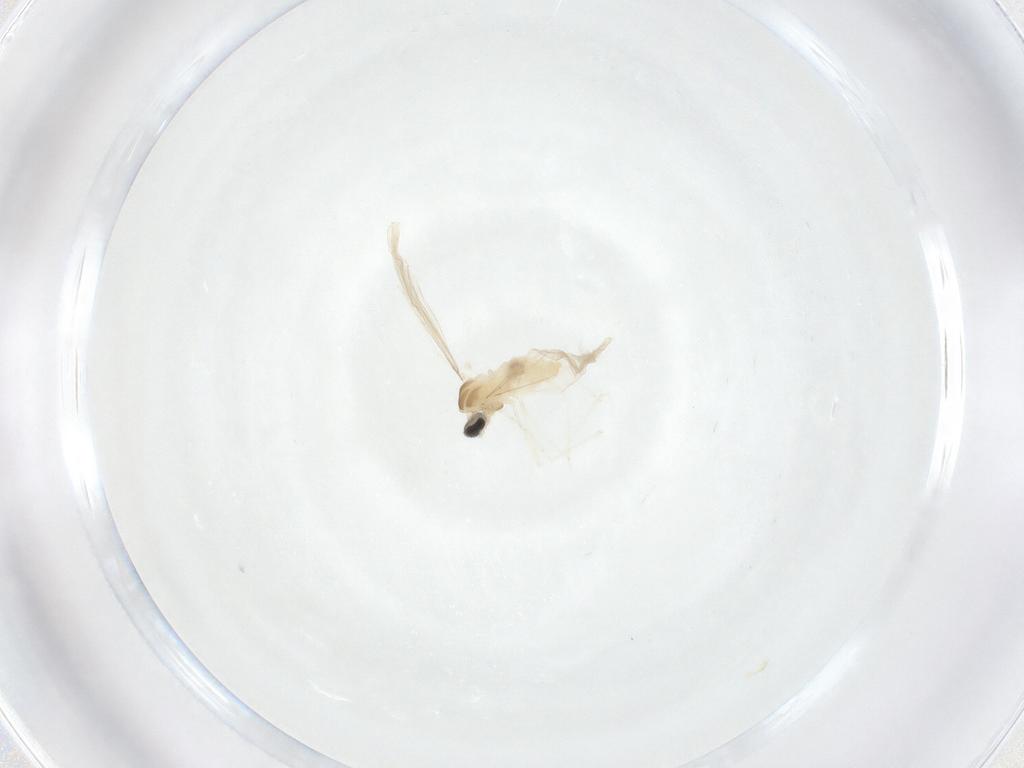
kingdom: Animalia
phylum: Arthropoda
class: Insecta
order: Diptera
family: Cecidomyiidae
